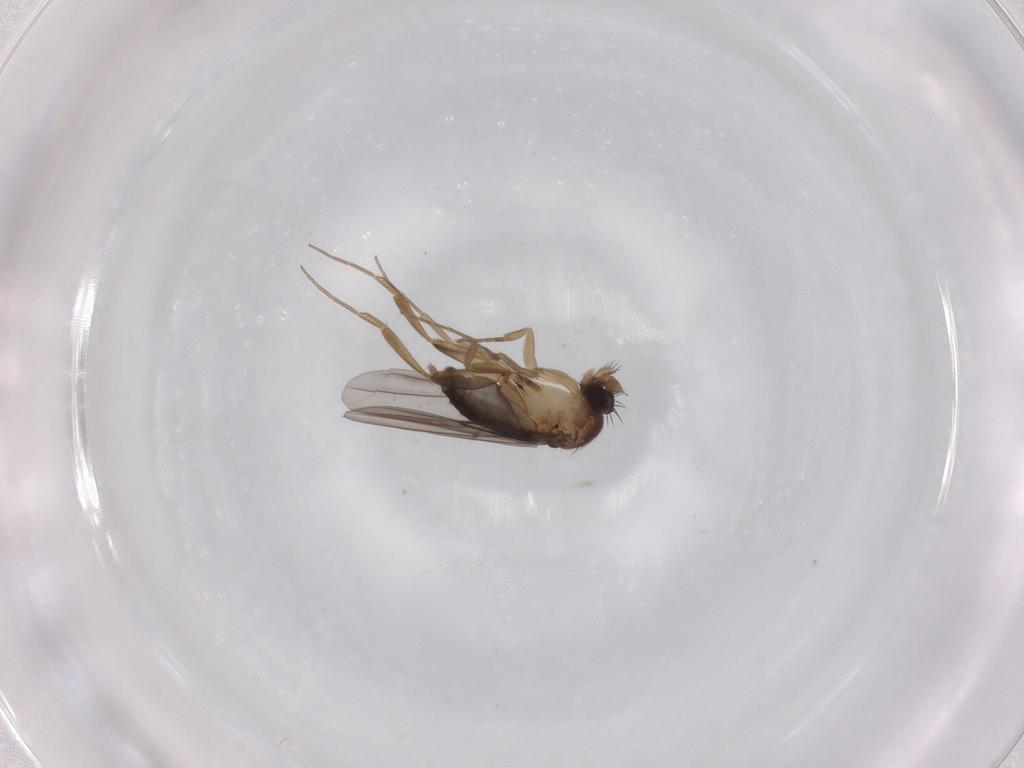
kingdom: Animalia
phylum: Arthropoda
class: Insecta
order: Diptera
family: Phoridae
